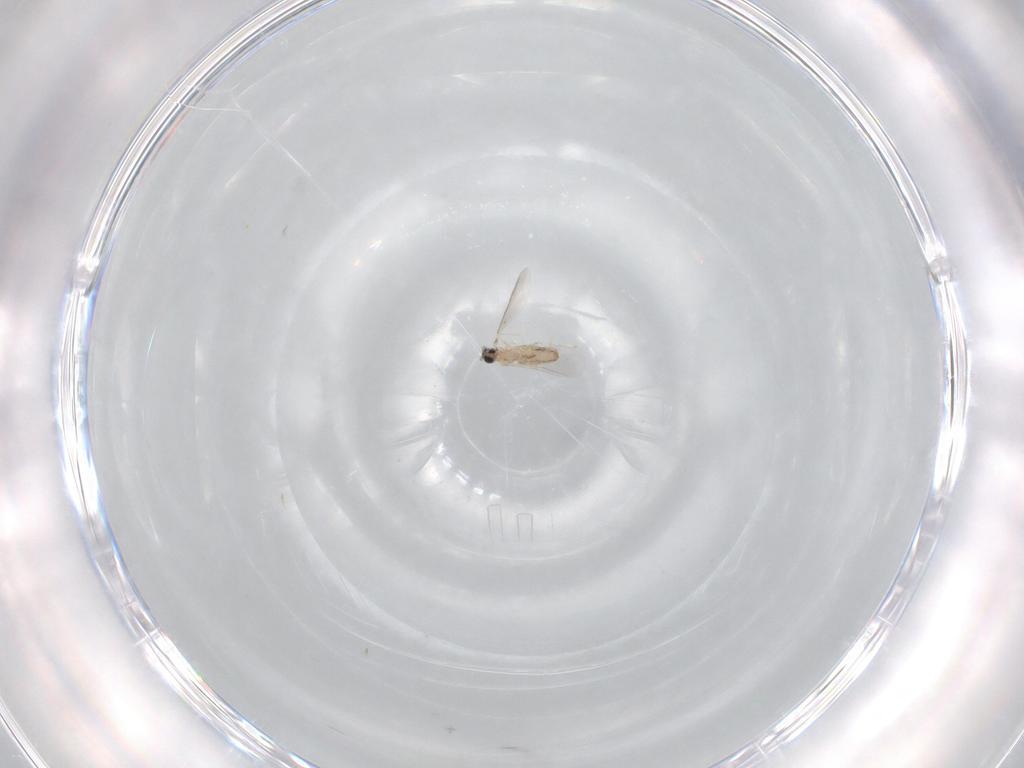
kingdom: Animalia
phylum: Arthropoda
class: Insecta
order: Diptera
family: Cecidomyiidae
